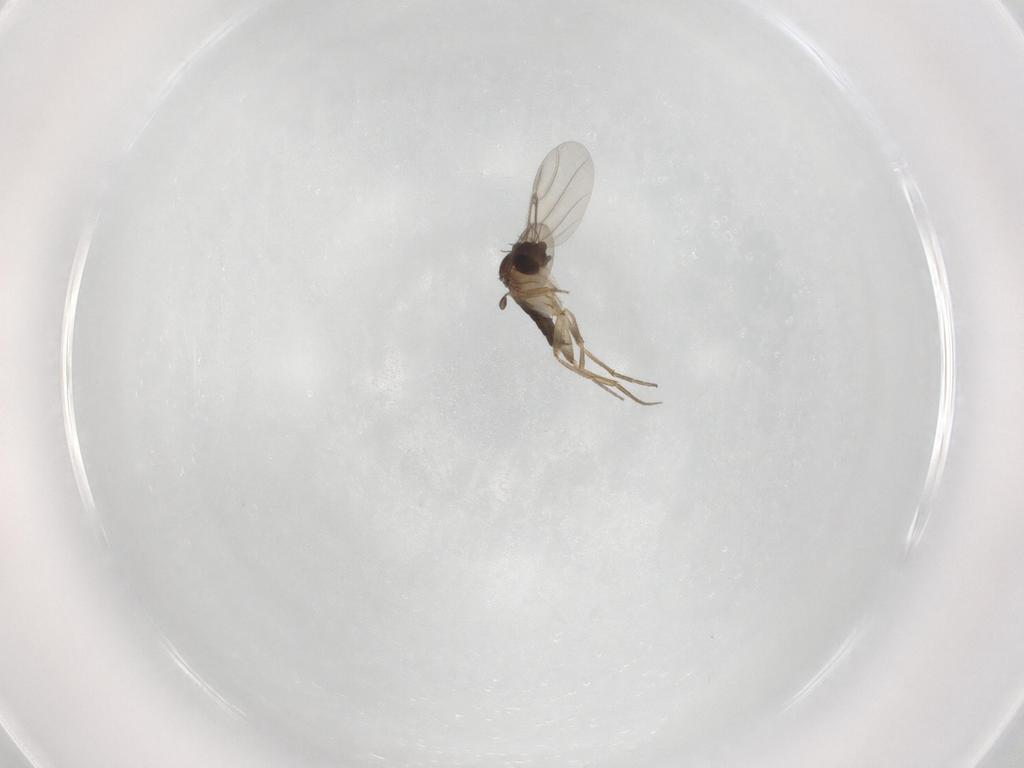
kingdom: Animalia
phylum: Arthropoda
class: Insecta
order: Diptera
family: Phoridae
